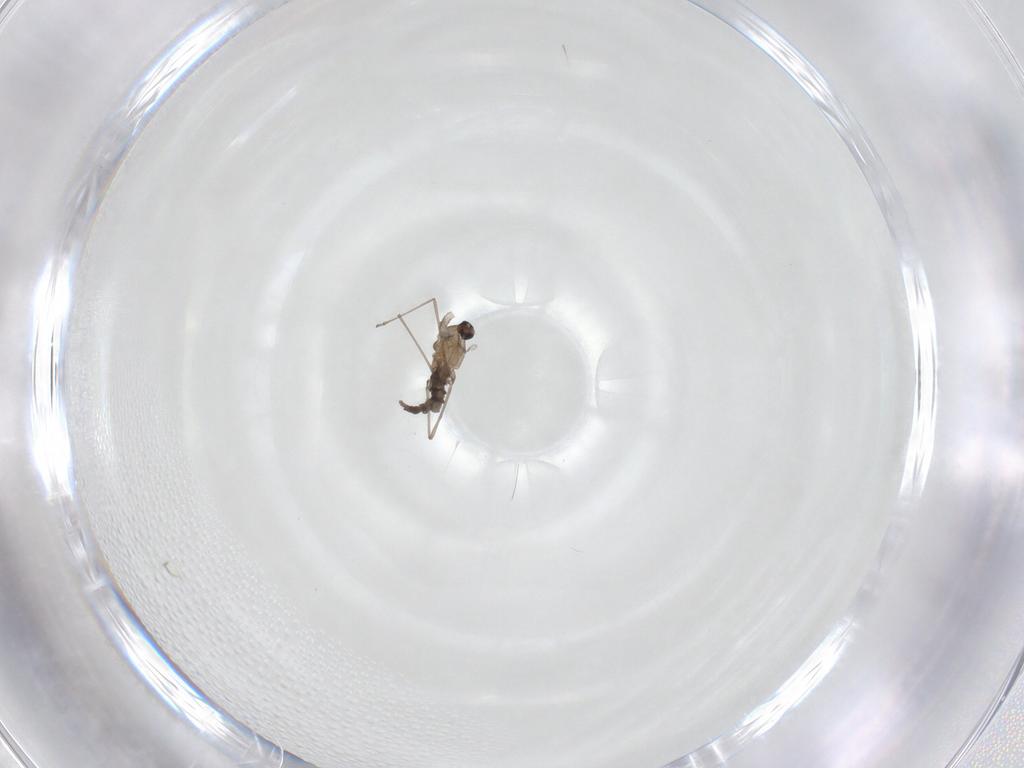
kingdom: Animalia
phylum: Arthropoda
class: Insecta
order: Diptera
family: Cecidomyiidae
